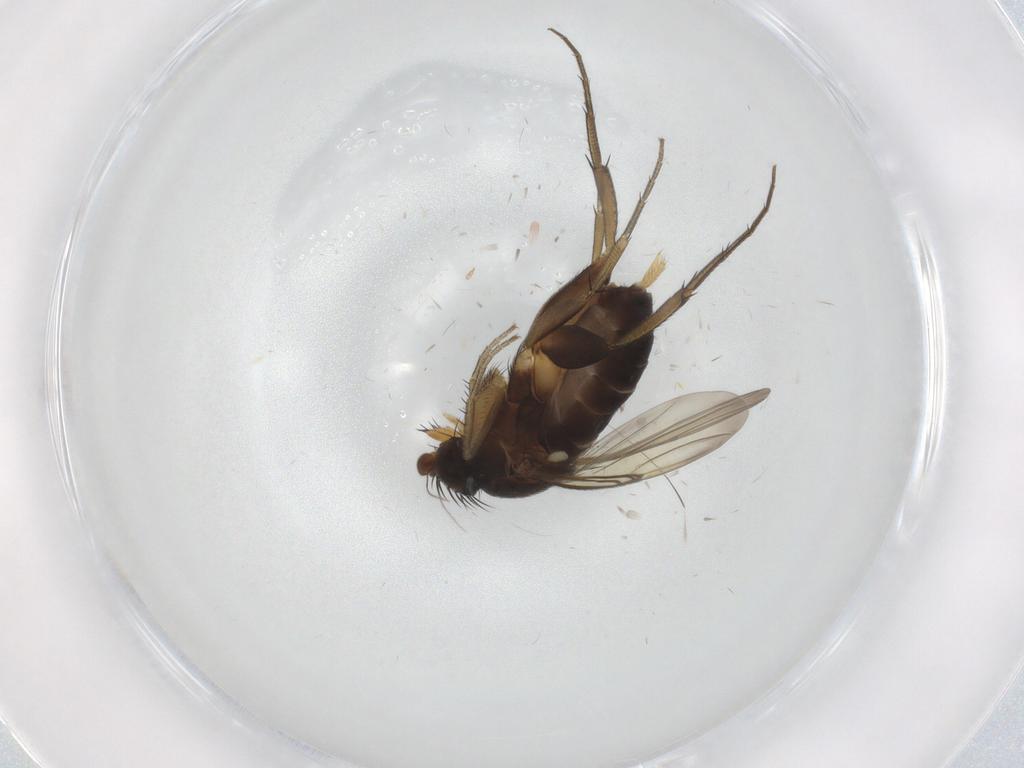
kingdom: Animalia
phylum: Arthropoda
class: Insecta
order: Diptera
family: Phoridae
